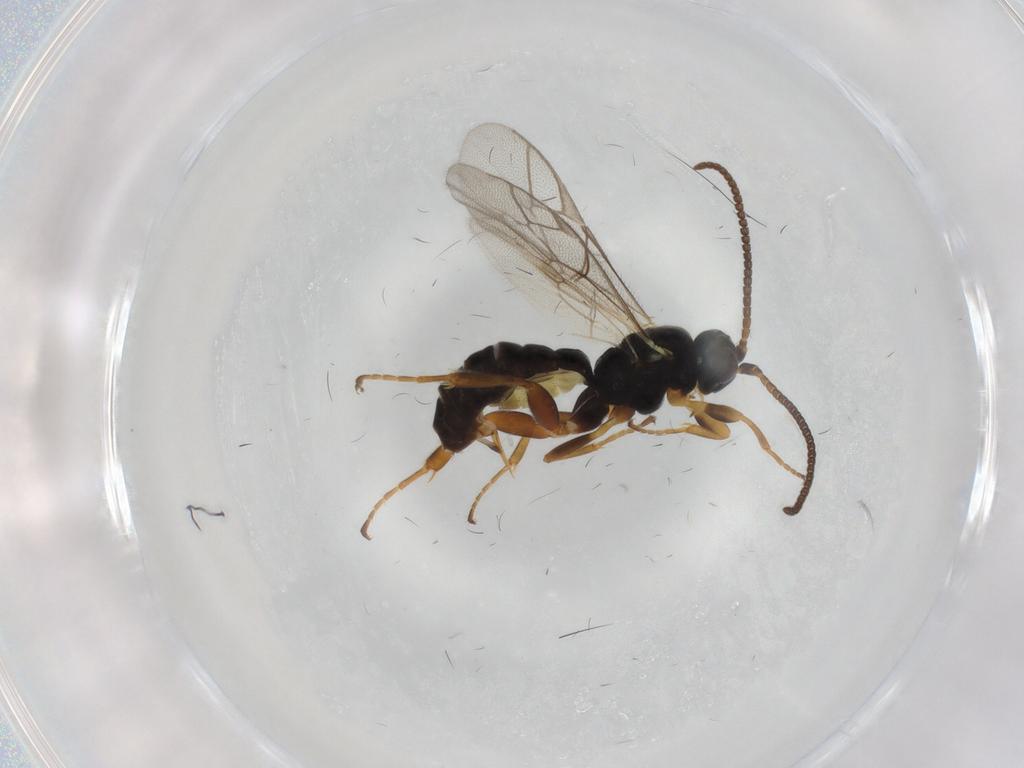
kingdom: Animalia
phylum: Arthropoda
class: Insecta
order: Hymenoptera
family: Ichneumonidae
